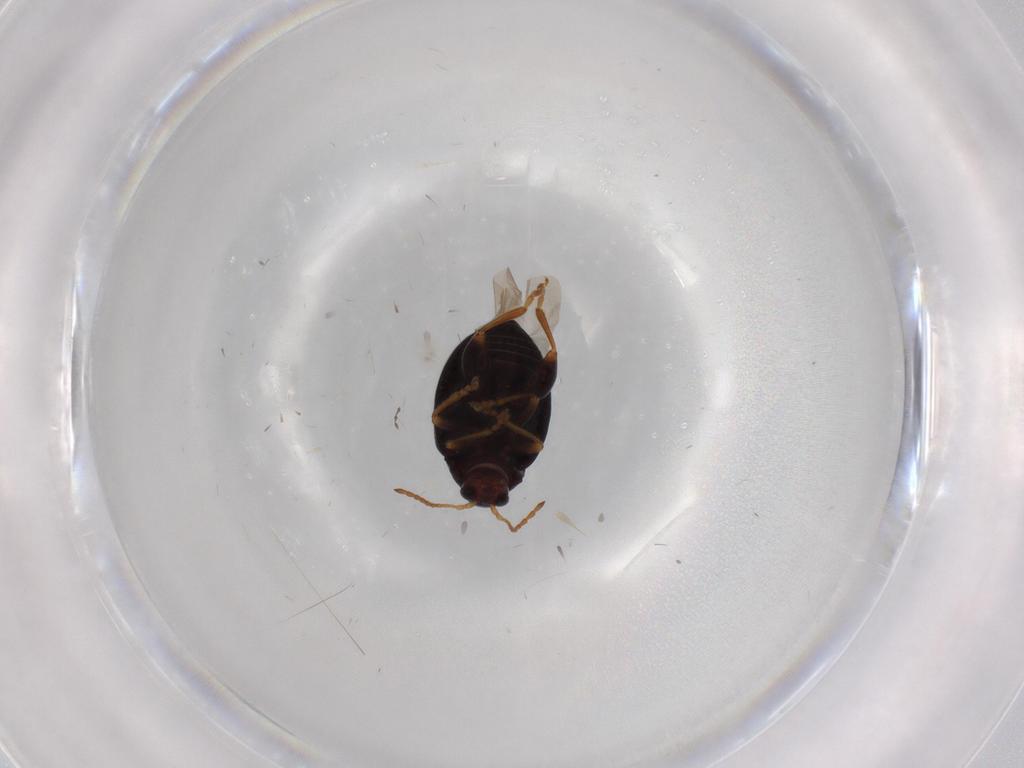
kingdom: Animalia
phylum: Arthropoda
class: Insecta
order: Coleoptera
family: Chrysomelidae
